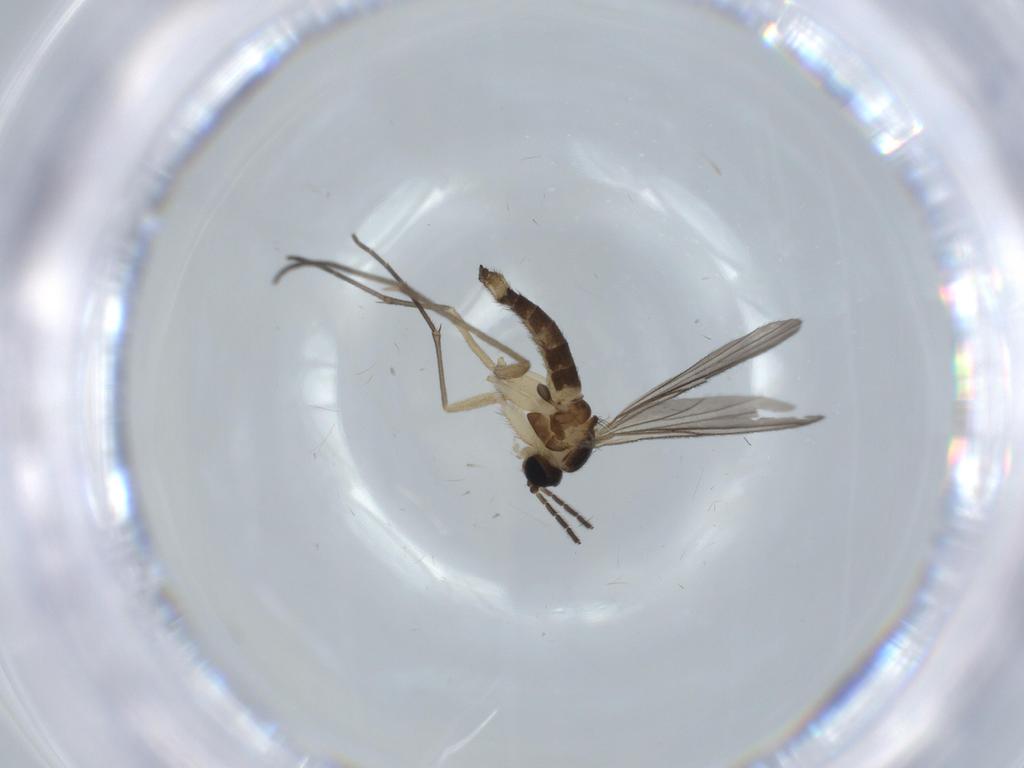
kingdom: Animalia
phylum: Arthropoda
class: Insecta
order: Diptera
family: Sciaridae
